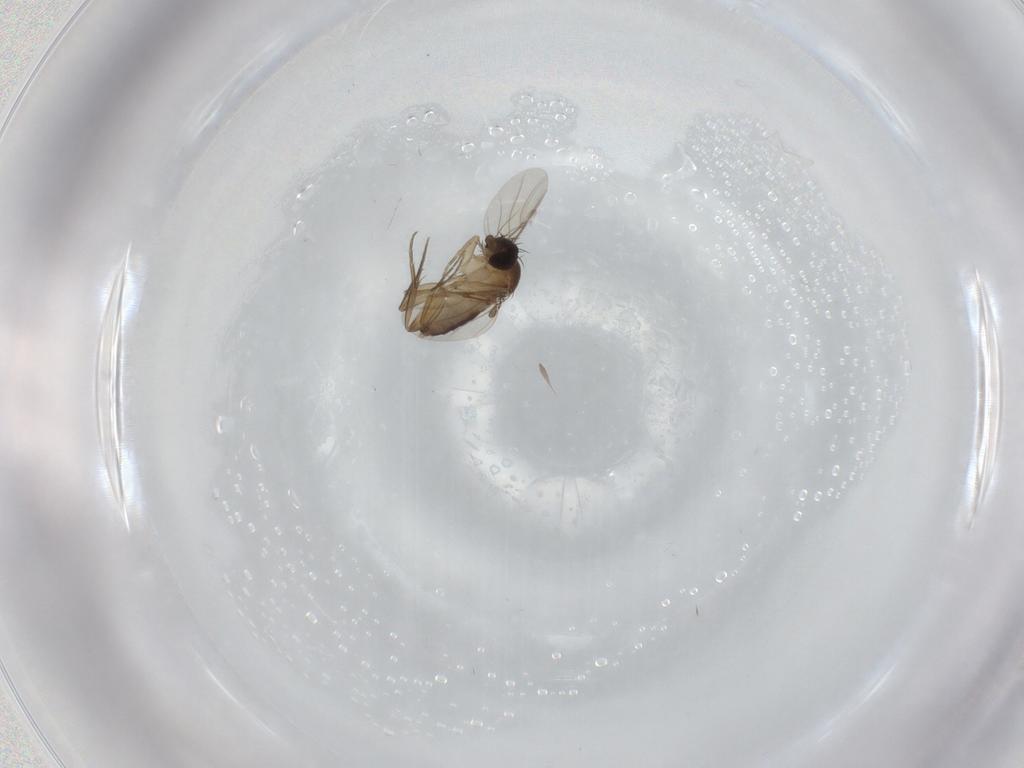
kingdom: Animalia
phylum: Arthropoda
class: Insecta
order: Diptera
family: Phoridae
